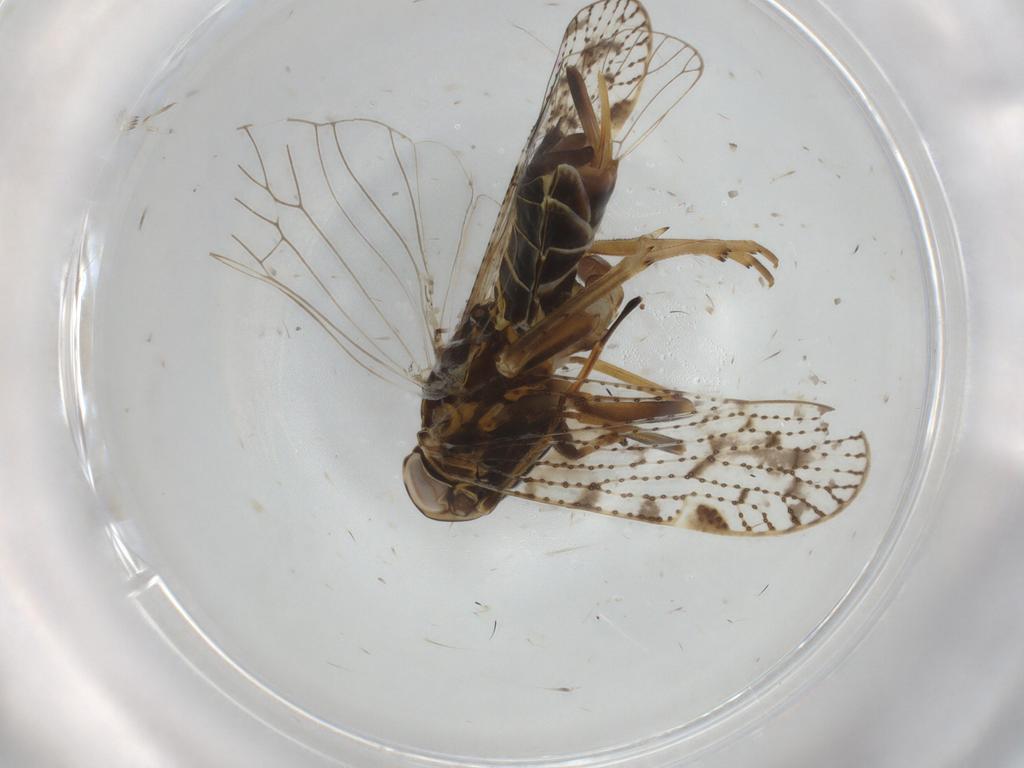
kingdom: Animalia
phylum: Arthropoda
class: Insecta
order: Hemiptera
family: Cixiidae
